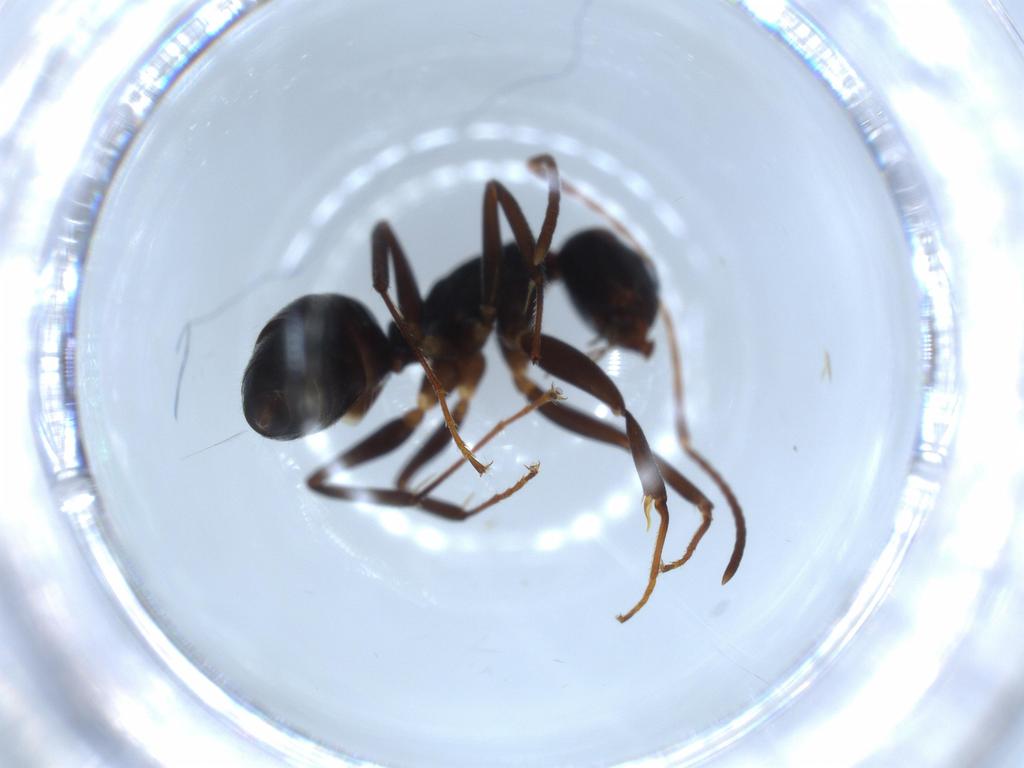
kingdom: Animalia
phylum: Arthropoda
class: Insecta
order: Hymenoptera
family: Formicidae
